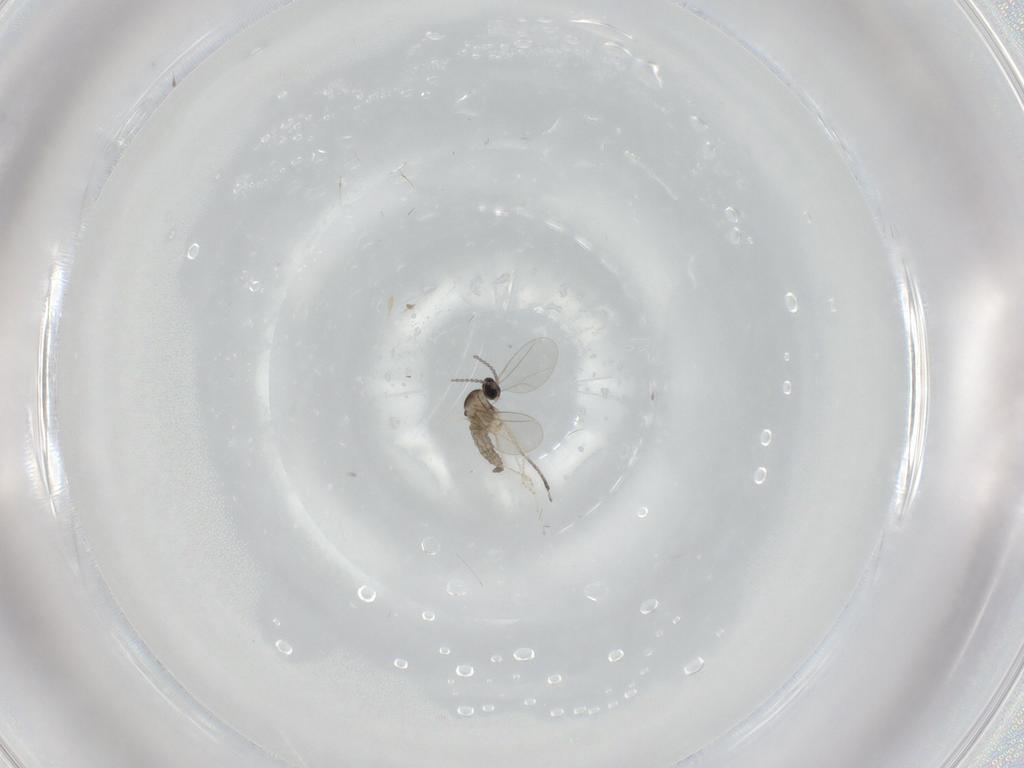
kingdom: Animalia
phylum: Arthropoda
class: Insecta
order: Diptera
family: Cecidomyiidae
